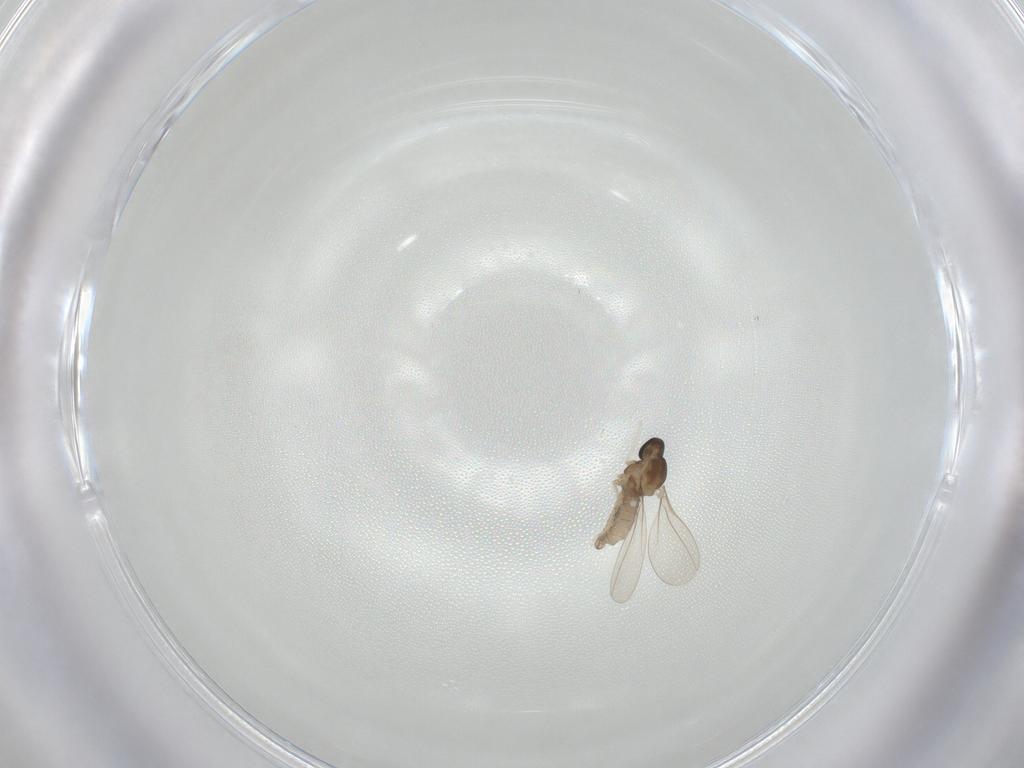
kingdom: Animalia
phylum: Arthropoda
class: Insecta
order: Diptera
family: Cecidomyiidae
